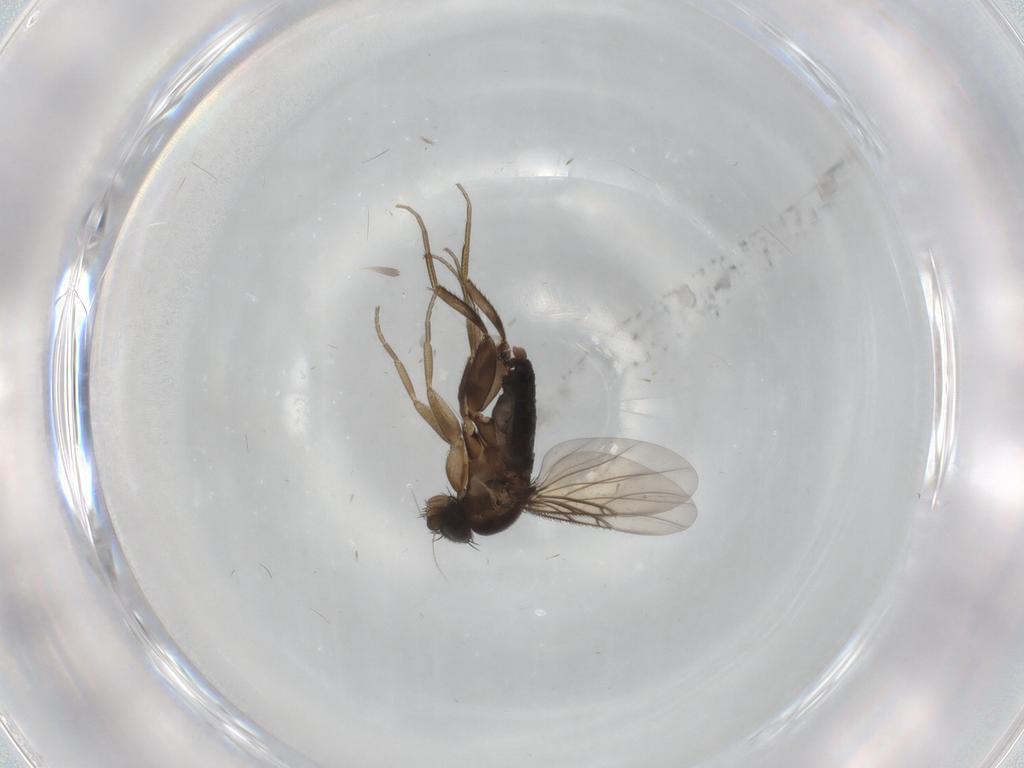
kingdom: Animalia
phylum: Arthropoda
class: Insecta
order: Diptera
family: Phoridae
